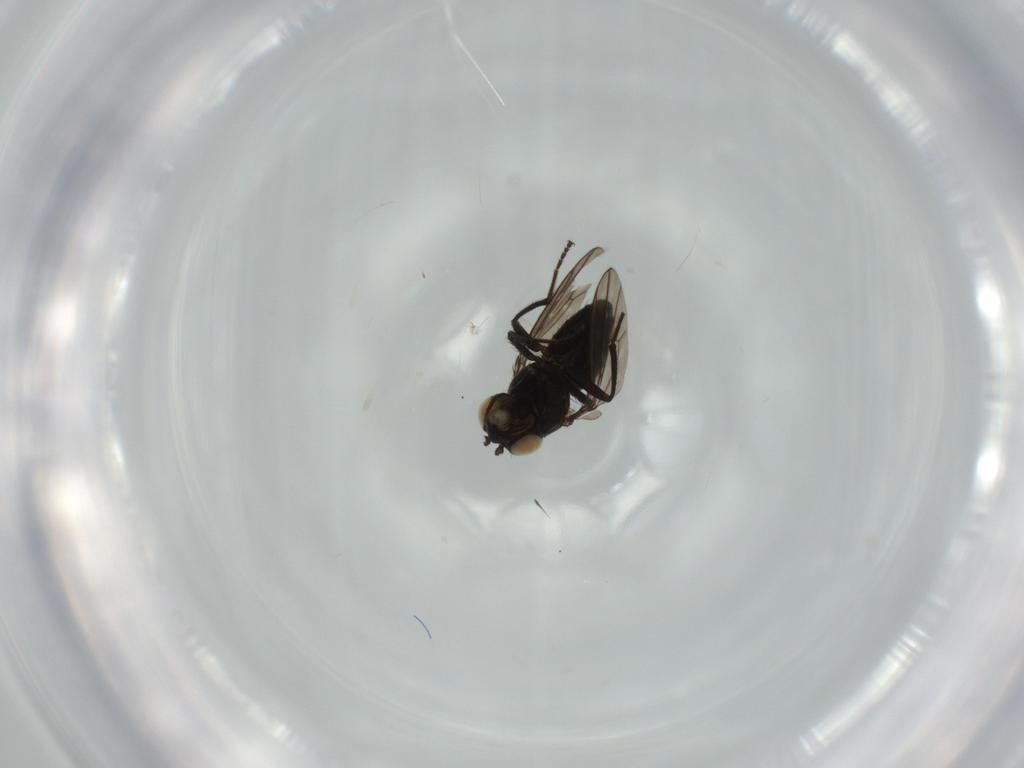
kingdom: Animalia
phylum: Arthropoda
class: Insecta
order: Diptera
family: Ephydridae
